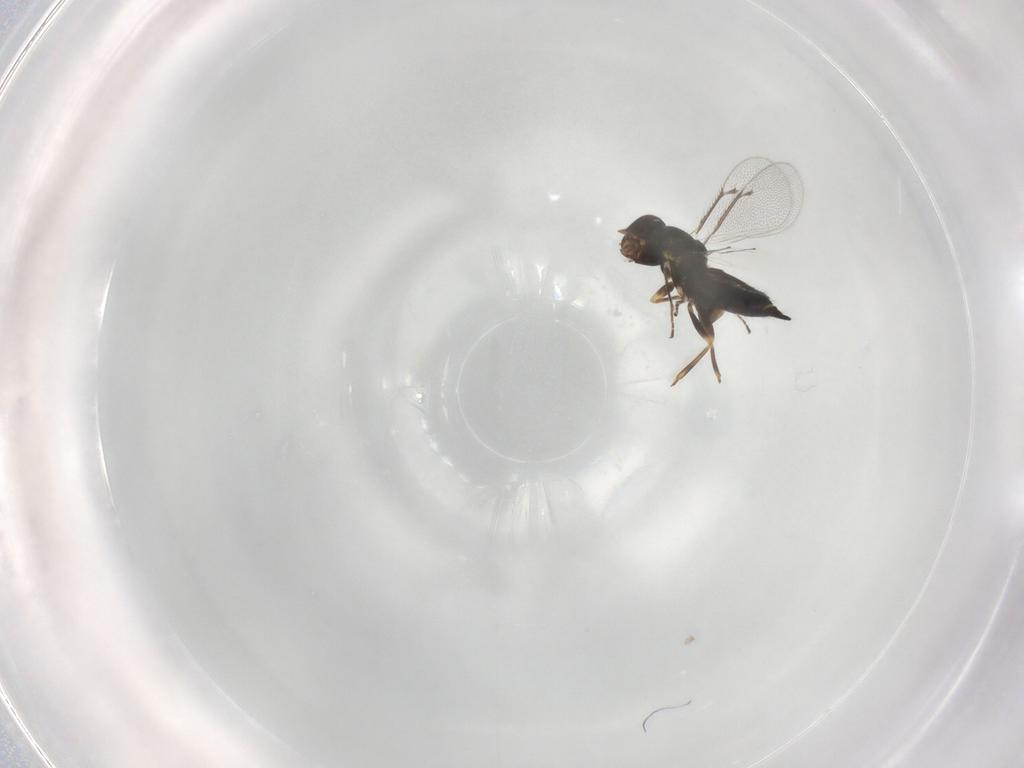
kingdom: Animalia
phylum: Arthropoda
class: Insecta
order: Hymenoptera
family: Eulophidae
